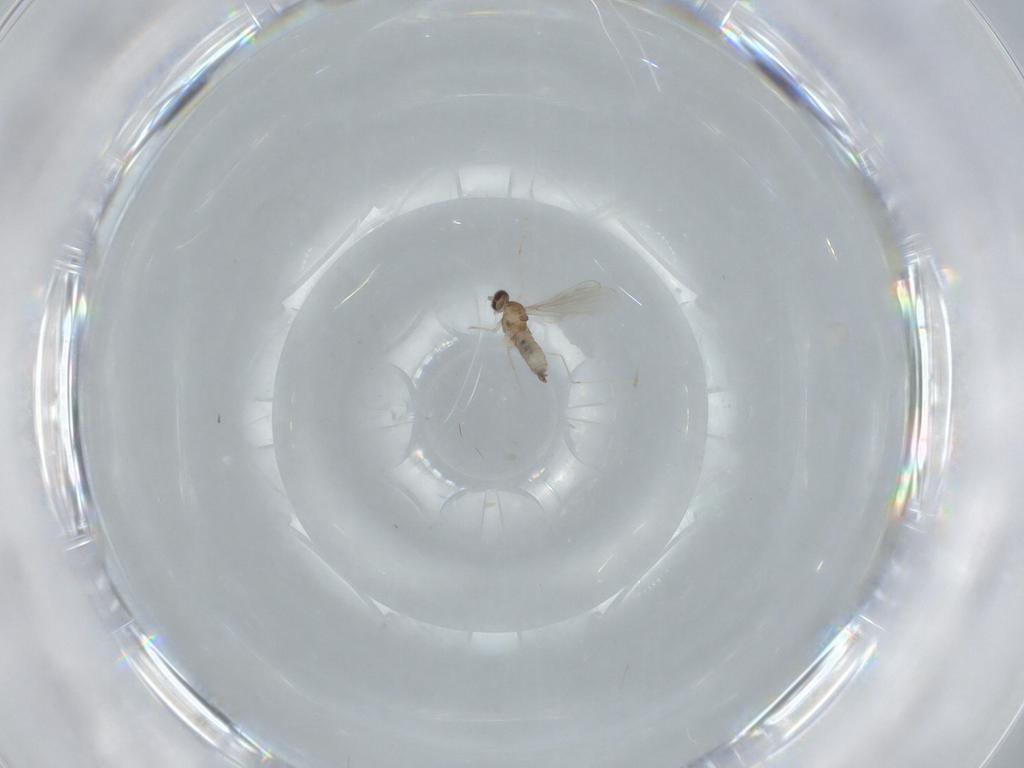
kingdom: Animalia
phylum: Arthropoda
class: Insecta
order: Diptera
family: Cecidomyiidae
